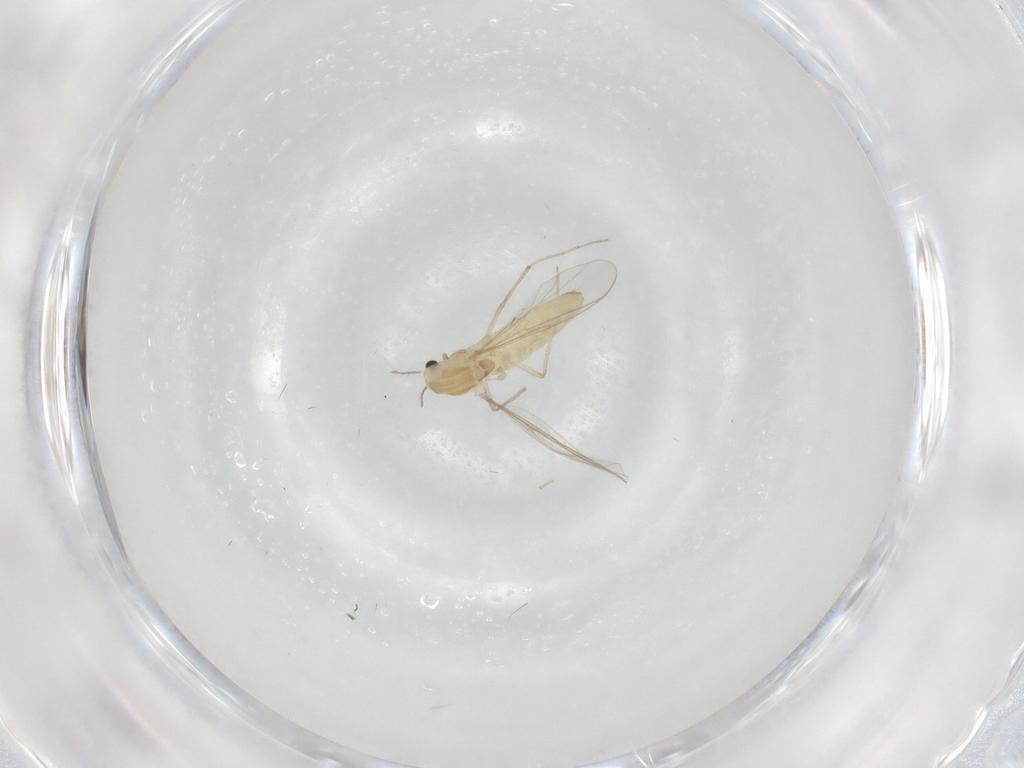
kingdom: Animalia
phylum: Arthropoda
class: Insecta
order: Diptera
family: Chironomidae
